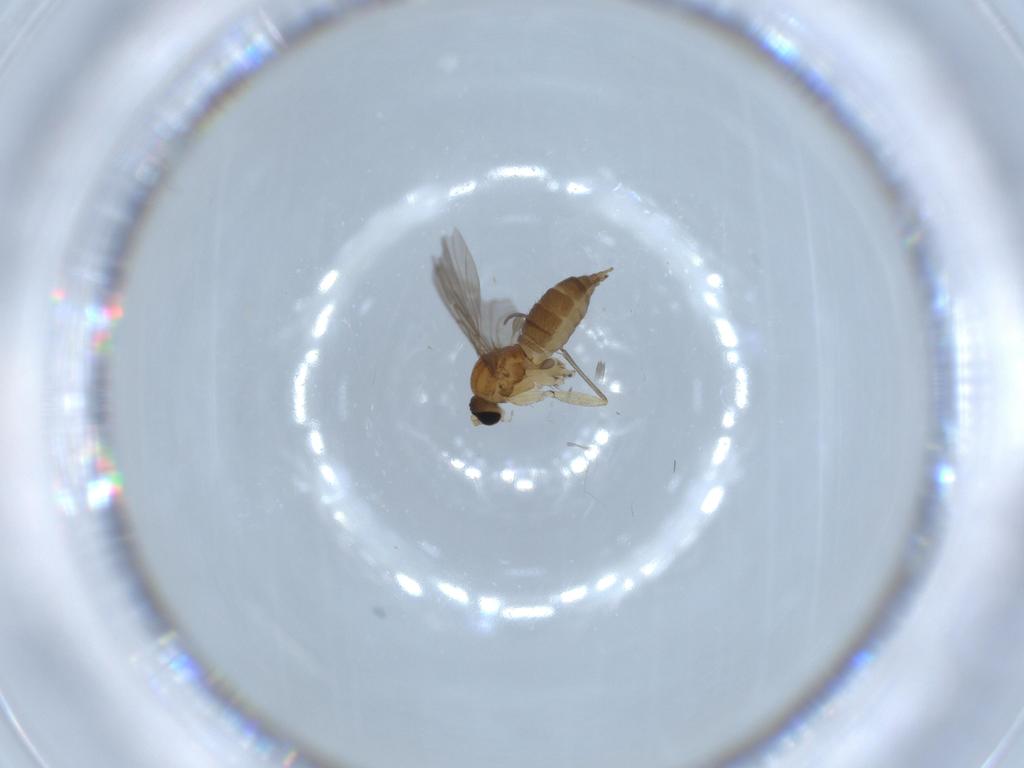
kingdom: Animalia
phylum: Arthropoda
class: Insecta
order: Diptera
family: Sciaridae
